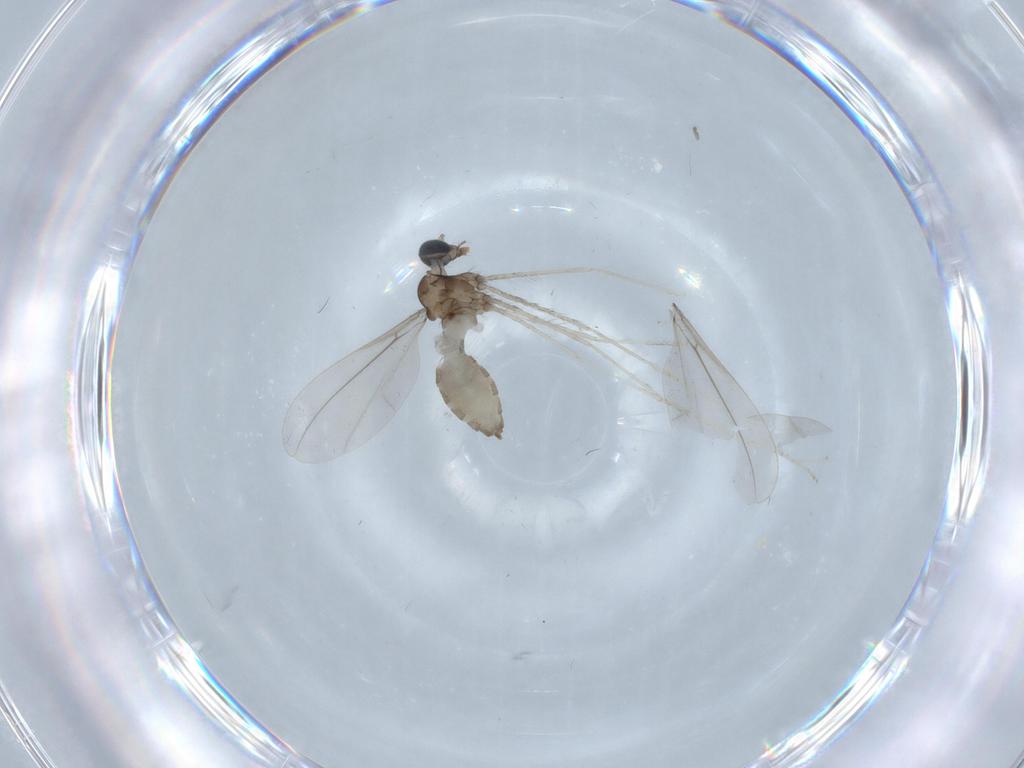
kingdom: Animalia
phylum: Arthropoda
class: Insecta
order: Diptera
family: Cecidomyiidae
